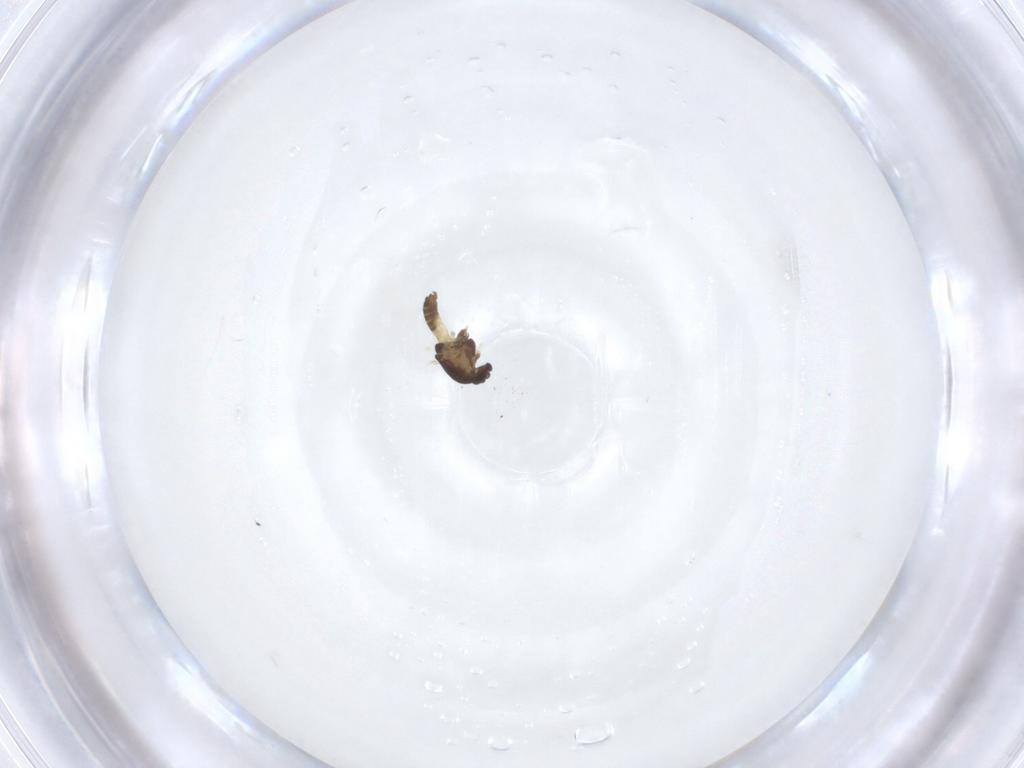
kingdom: Animalia
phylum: Arthropoda
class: Insecta
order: Diptera
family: Chironomidae
